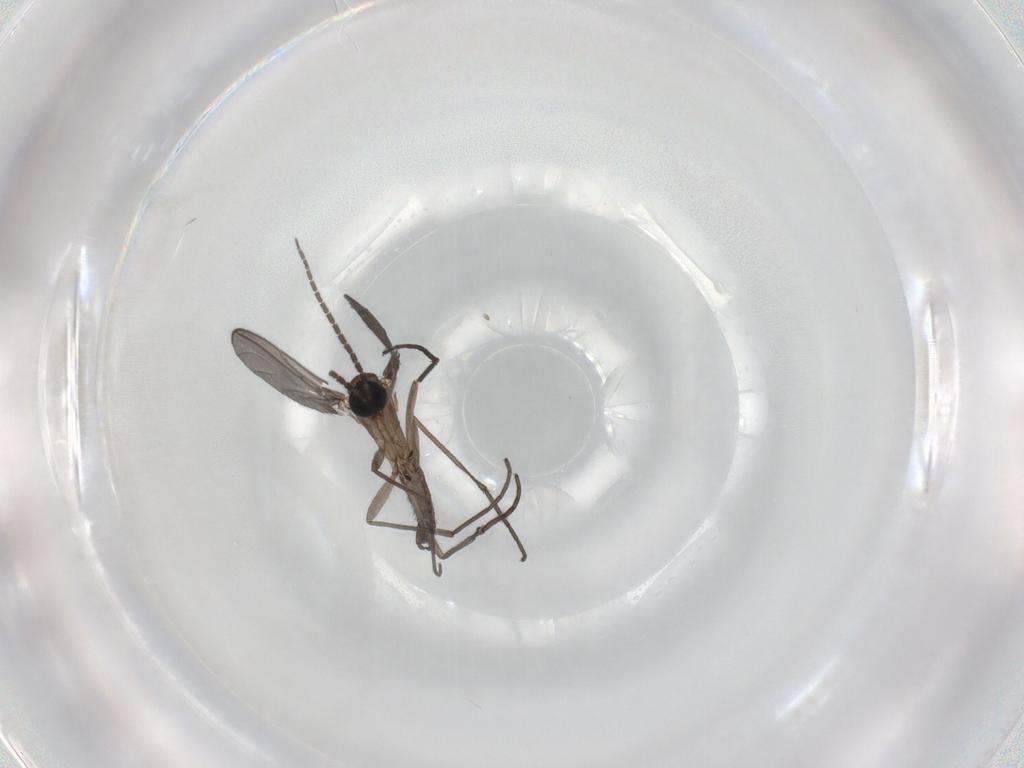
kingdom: Animalia
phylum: Arthropoda
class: Insecta
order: Diptera
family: Sciaridae
